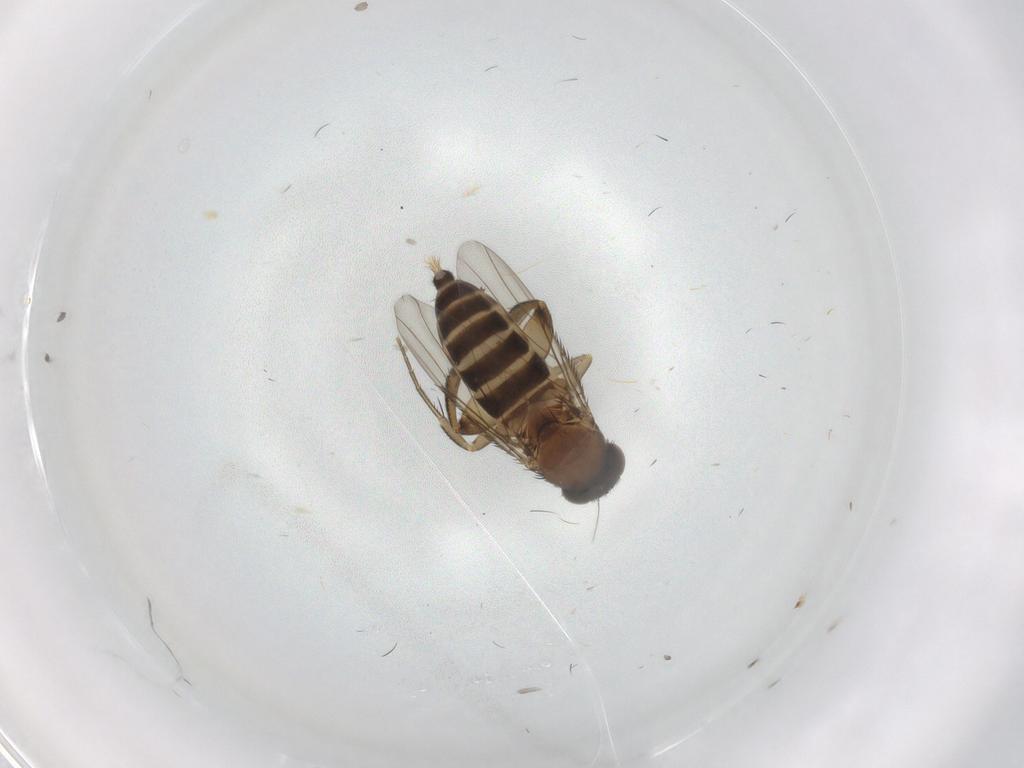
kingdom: Animalia
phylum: Arthropoda
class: Insecta
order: Diptera
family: Phoridae
